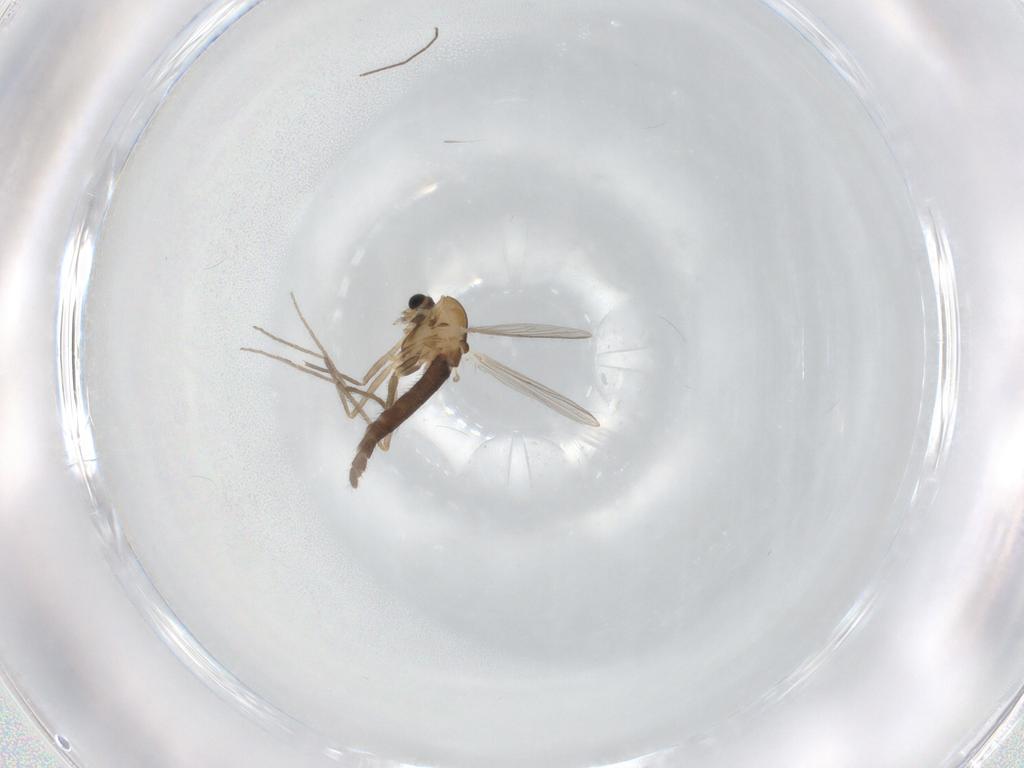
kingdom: Animalia
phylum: Arthropoda
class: Insecta
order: Diptera
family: Chironomidae
